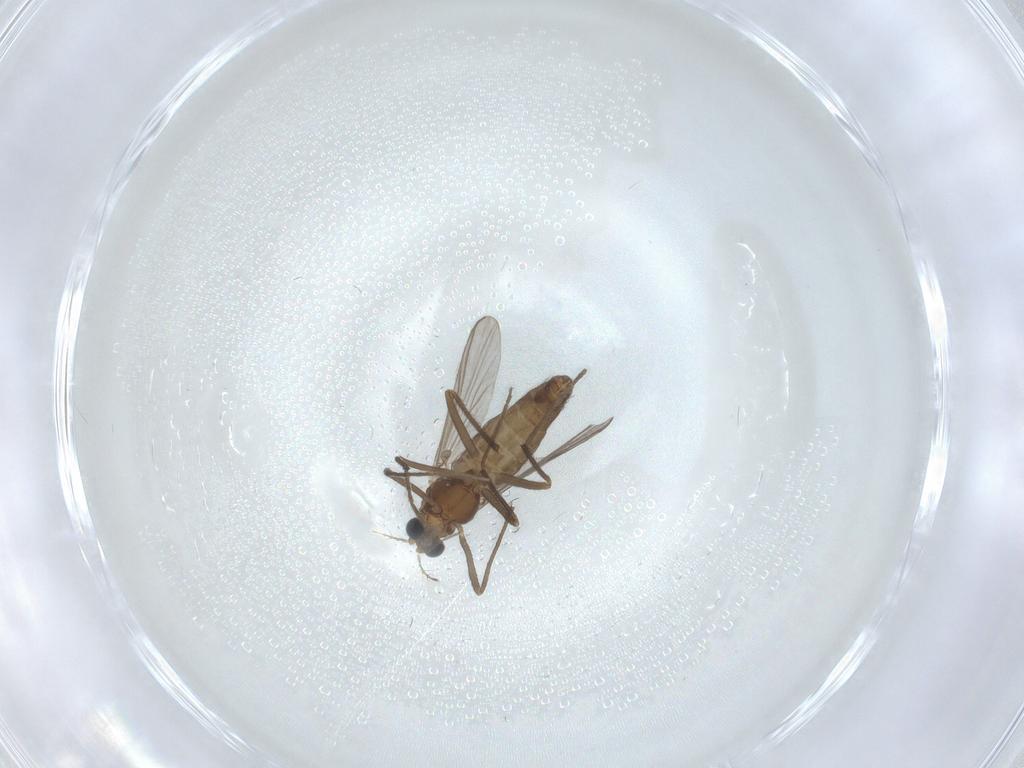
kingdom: Animalia
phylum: Arthropoda
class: Insecta
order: Diptera
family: Chironomidae
